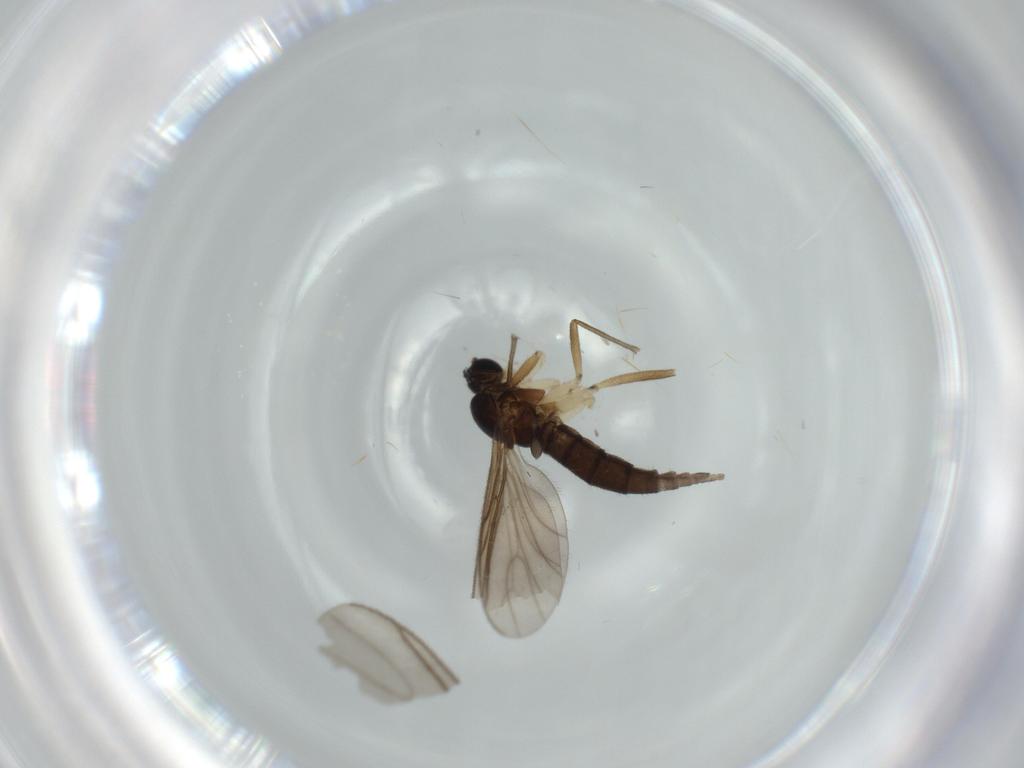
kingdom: Animalia
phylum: Arthropoda
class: Insecta
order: Diptera
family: Sciaridae
